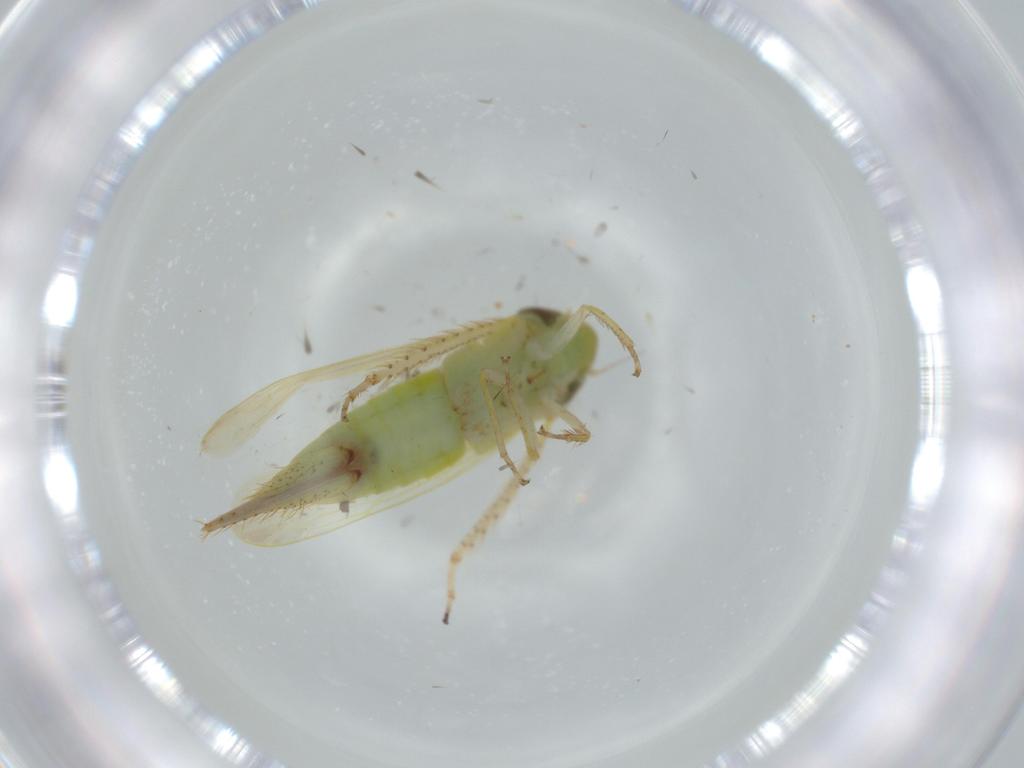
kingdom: Animalia
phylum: Arthropoda
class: Insecta
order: Hemiptera
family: Cicadellidae
